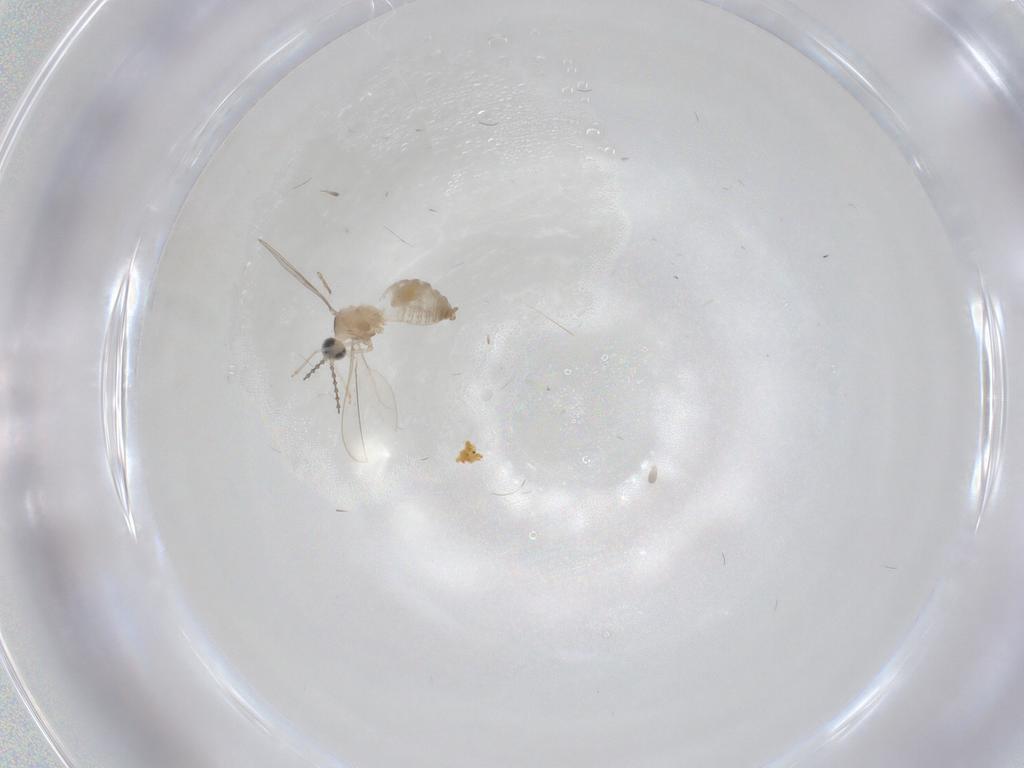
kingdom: Animalia
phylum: Arthropoda
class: Insecta
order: Diptera
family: Cecidomyiidae
